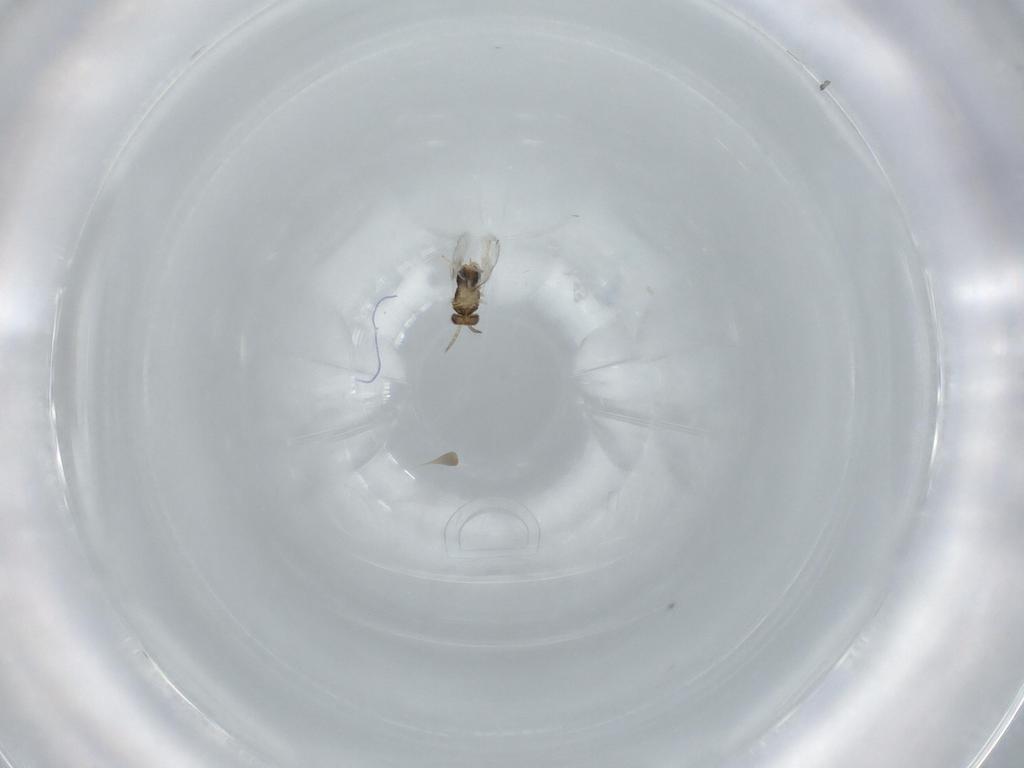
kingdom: Animalia
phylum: Arthropoda
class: Insecta
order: Hymenoptera
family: Aphelinidae
